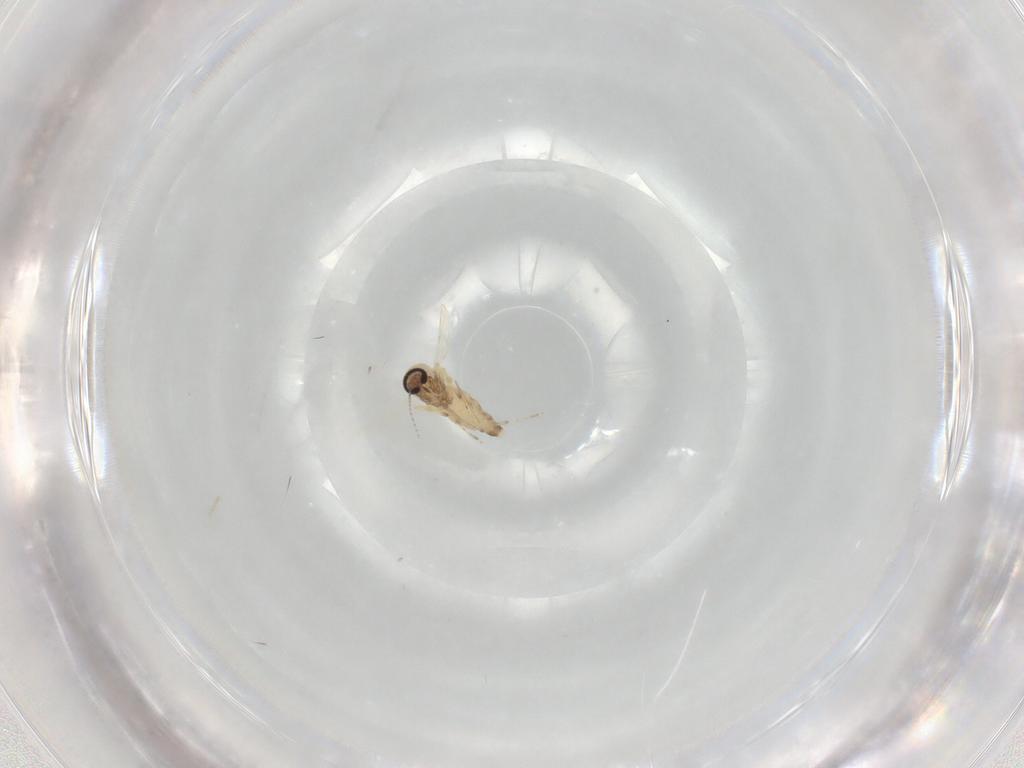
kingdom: Animalia
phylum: Arthropoda
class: Insecta
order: Diptera
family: Ceratopogonidae
